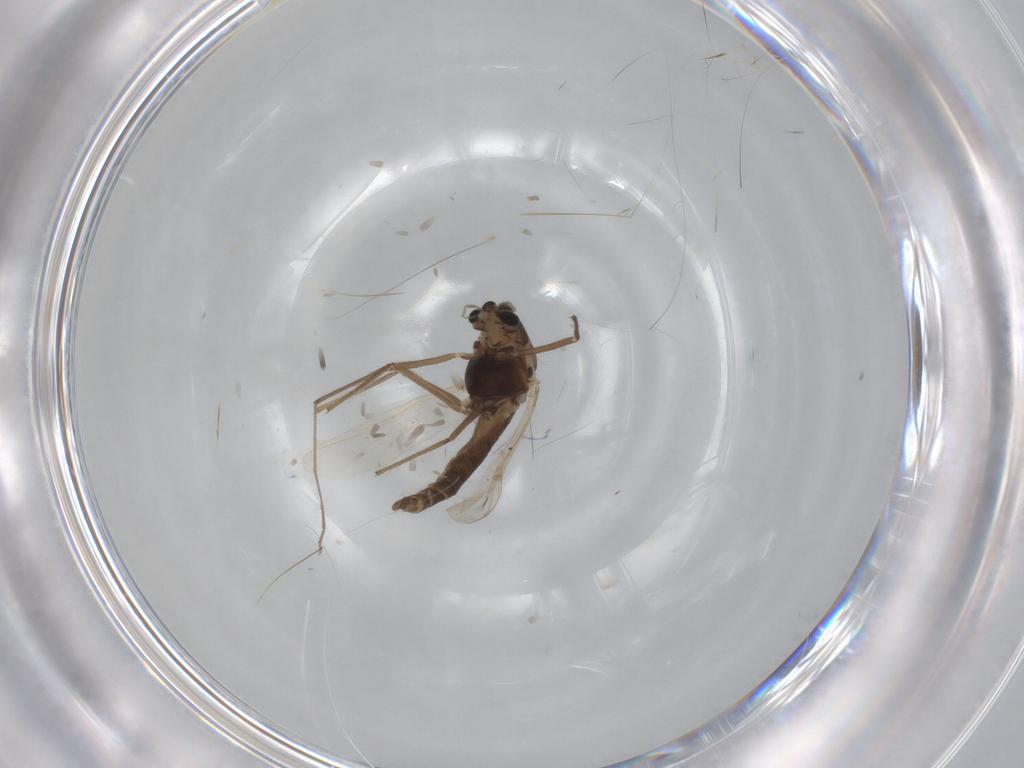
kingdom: Animalia
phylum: Arthropoda
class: Insecta
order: Diptera
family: Chironomidae
